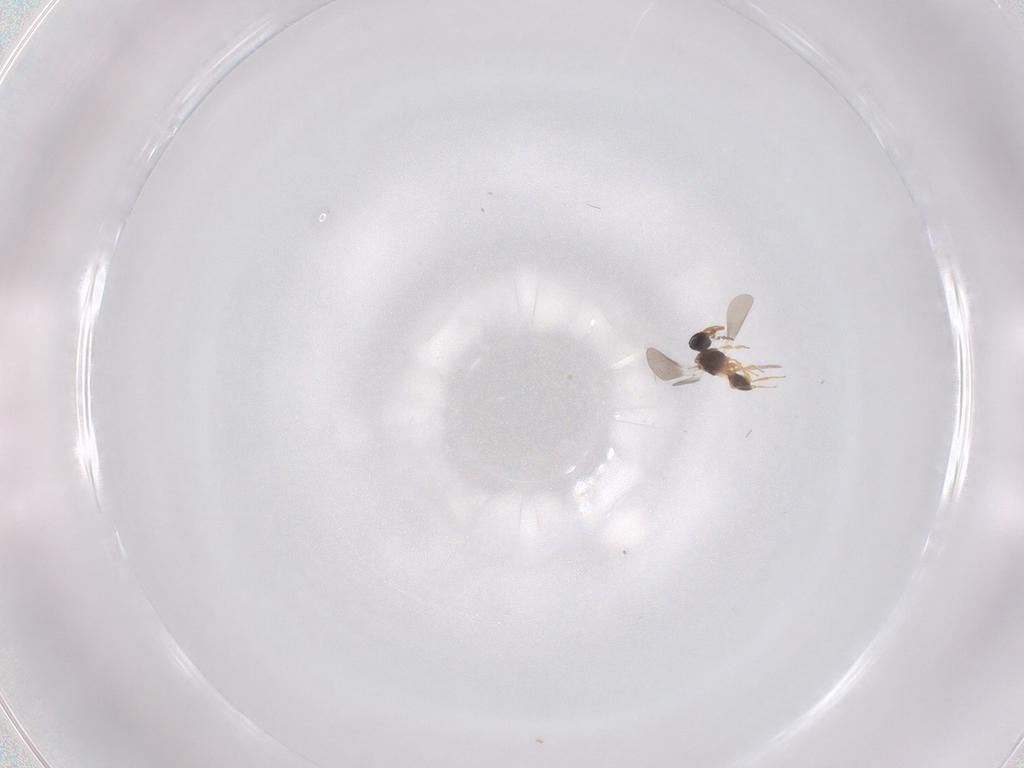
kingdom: Animalia
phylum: Arthropoda
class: Insecta
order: Hymenoptera
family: Platygastridae
